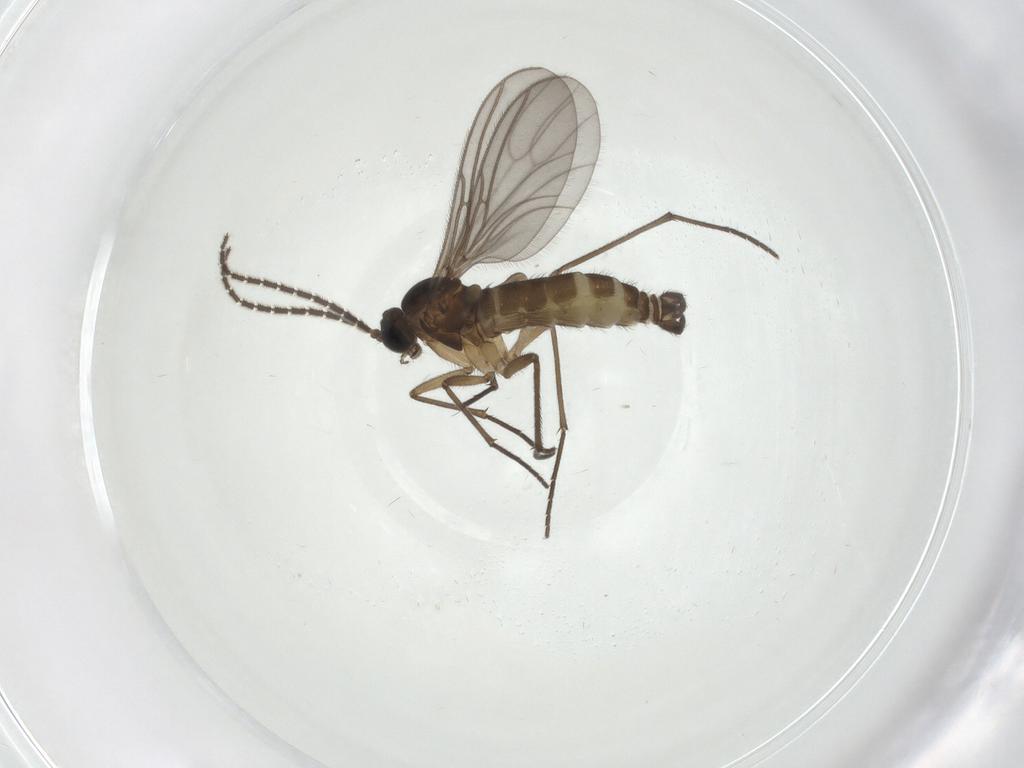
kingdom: Animalia
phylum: Arthropoda
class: Insecta
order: Diptera
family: Sciaridae
